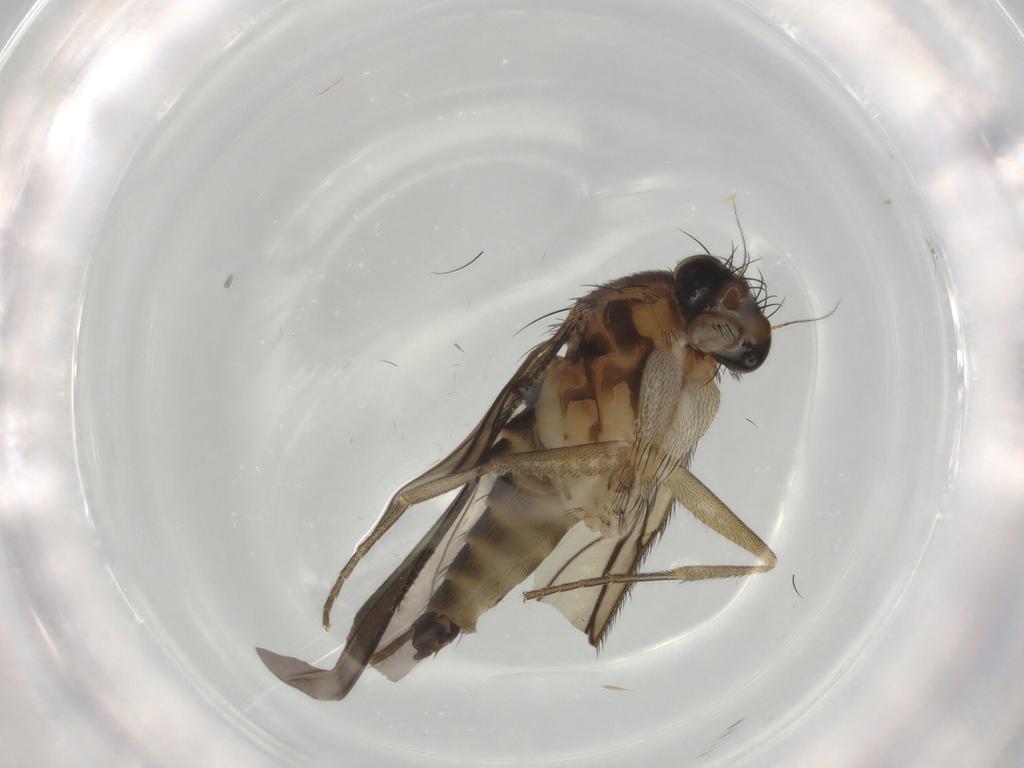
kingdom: Animalia
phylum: Arthropoda
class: Insecta
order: Diptera
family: Phoridae
